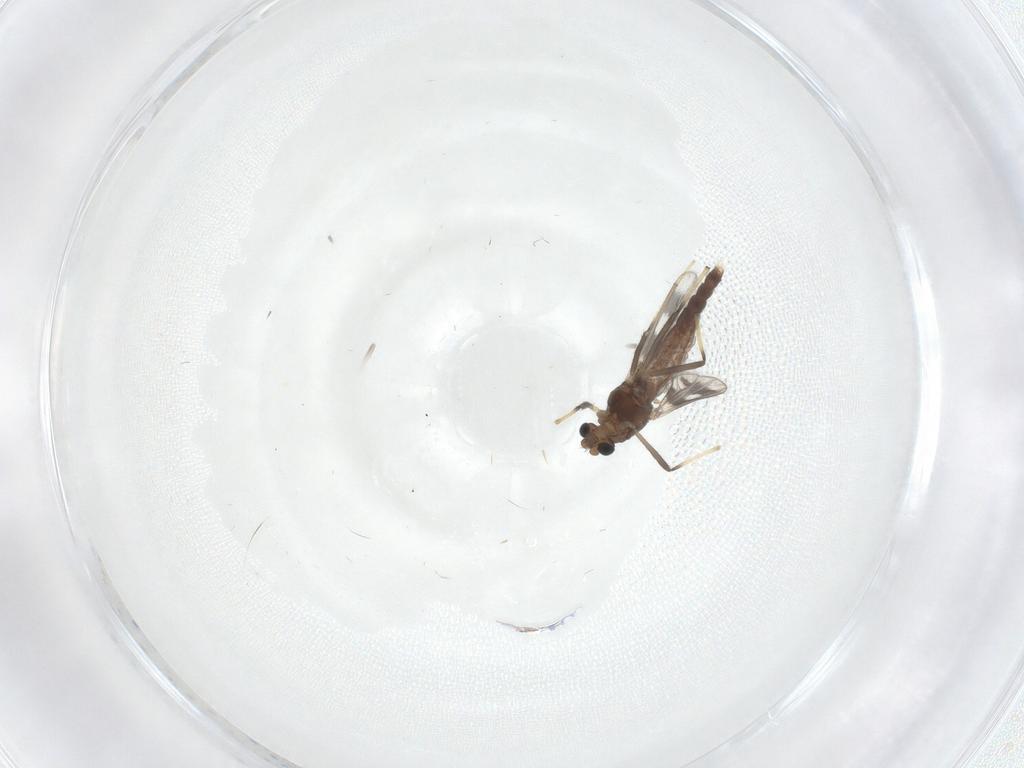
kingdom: Animalia
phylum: Arthropoda
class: Insecta
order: Diptera
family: Chironomidae
